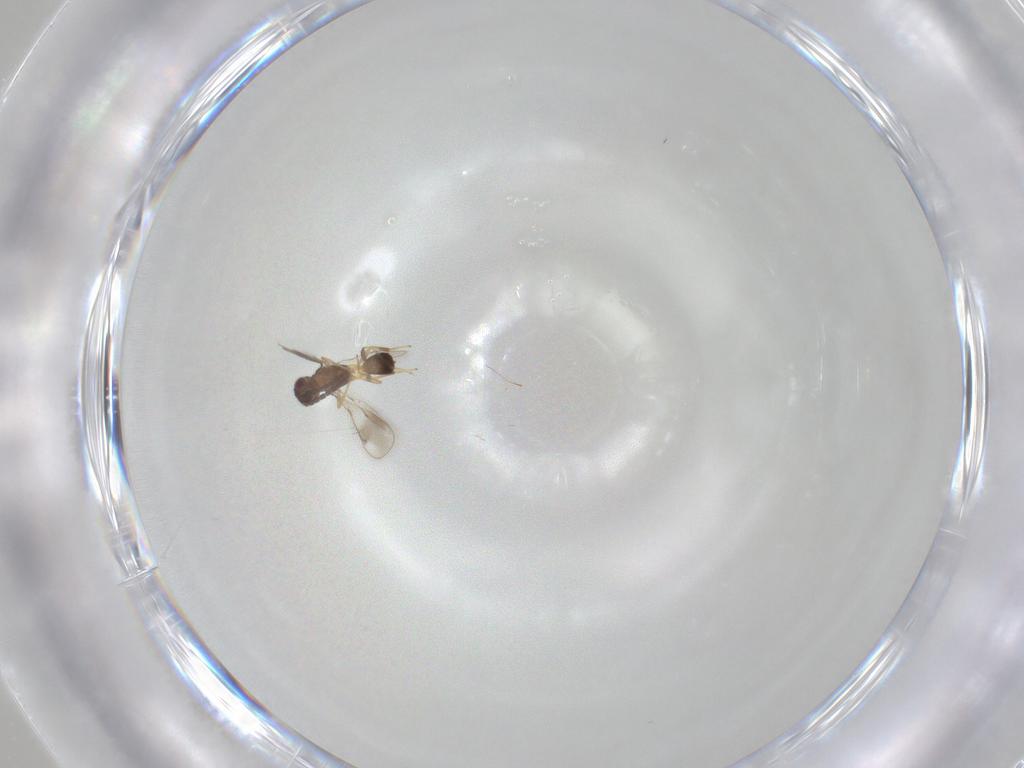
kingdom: Animalia
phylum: Arthropoda
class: Insecta
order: Hymenoptera
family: Pteromalidae
